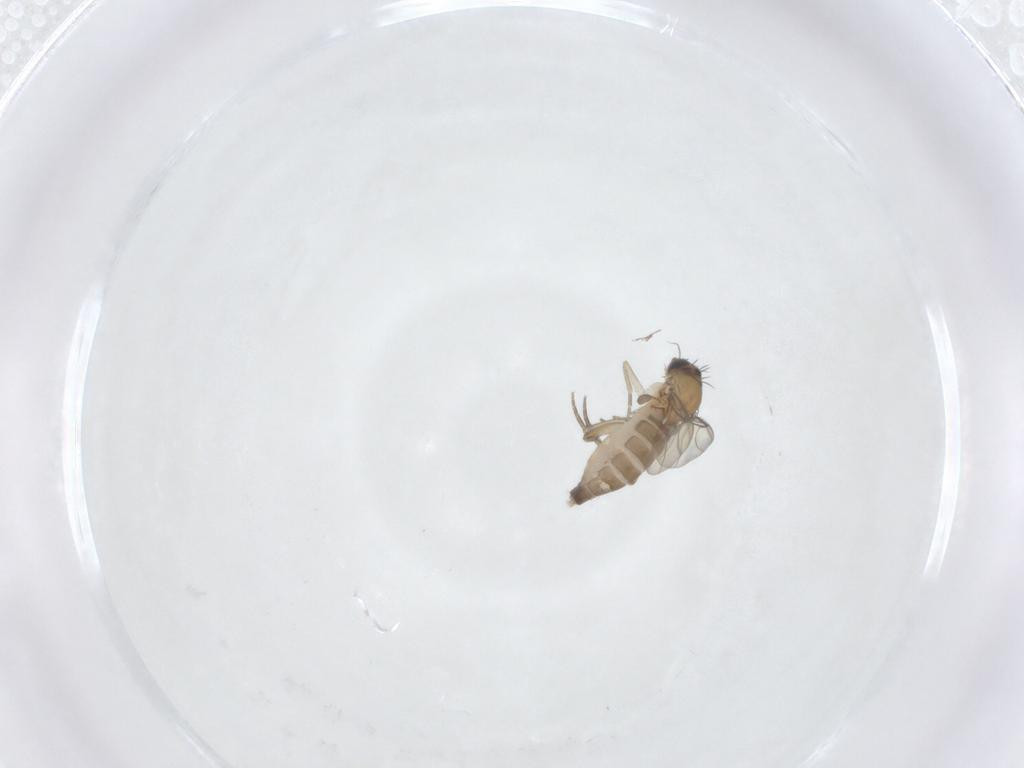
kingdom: Animalia
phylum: Arthropoda
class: Insecta
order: Diptera
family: Phoridae
